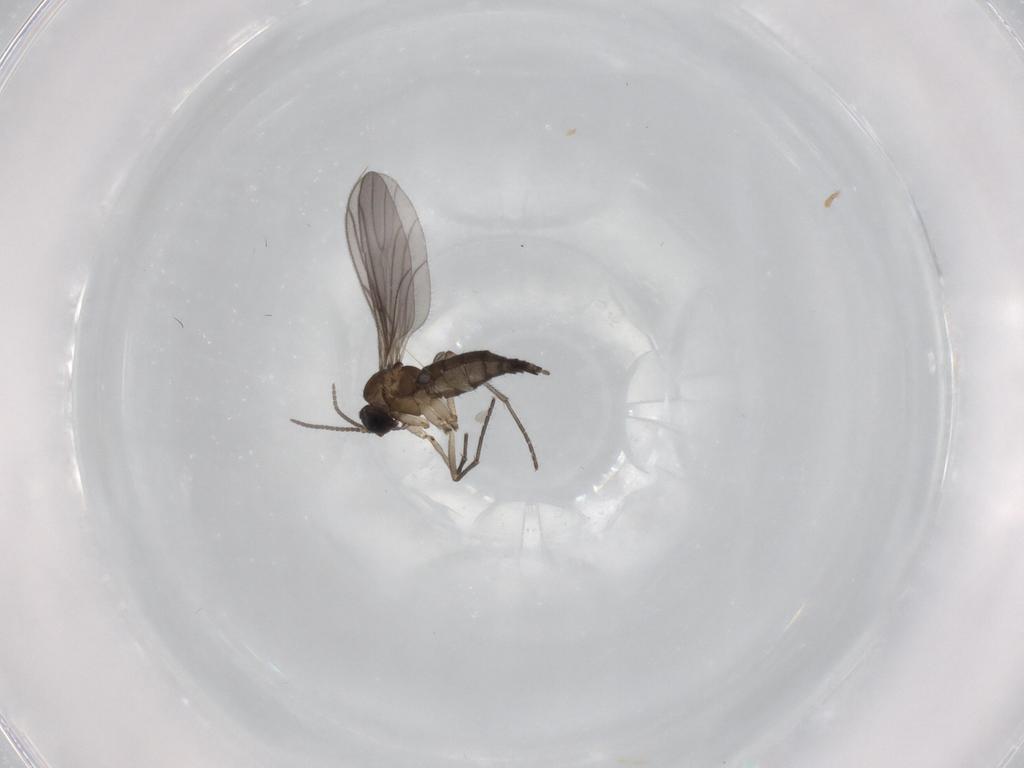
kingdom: Animalia
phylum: Arthropoda
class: Insecta
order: Diptera
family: Sciaridae
